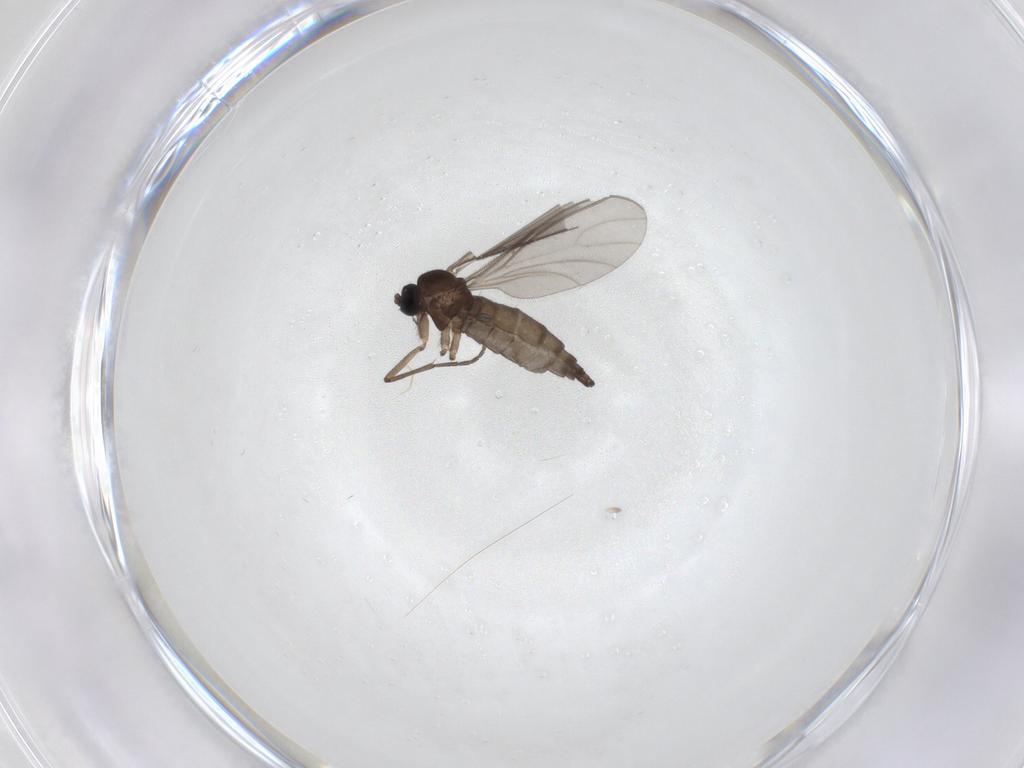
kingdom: Animalia
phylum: Arthropoda
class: Insecta
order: Diptera
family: Sciaridae
